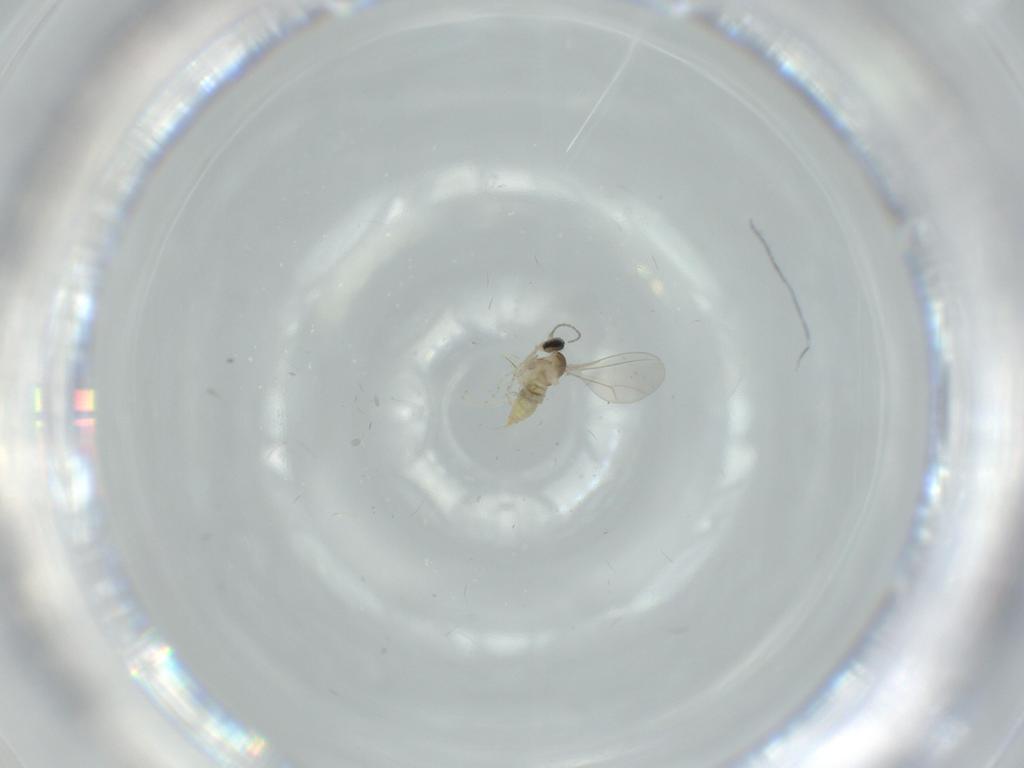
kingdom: Animalia
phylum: Arthropoda
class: Insecta
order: Diptera
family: Cecidomyiidae
